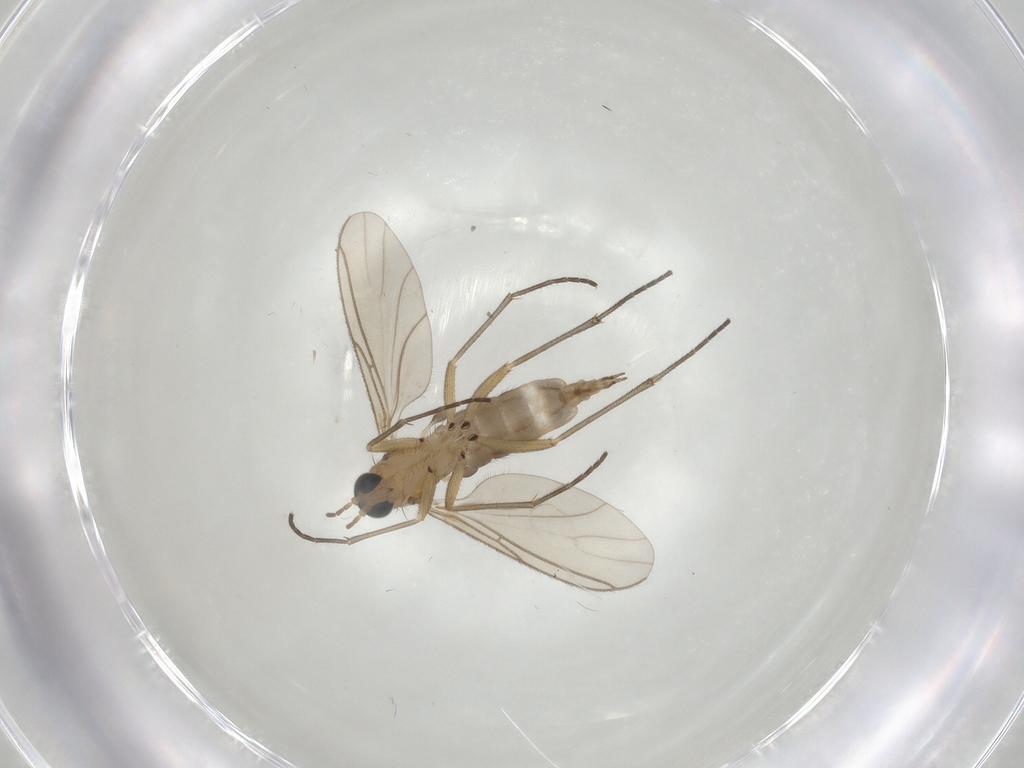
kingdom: Animalia
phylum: Arthropoda
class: Insecta
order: Diptera
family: Sciaridae
